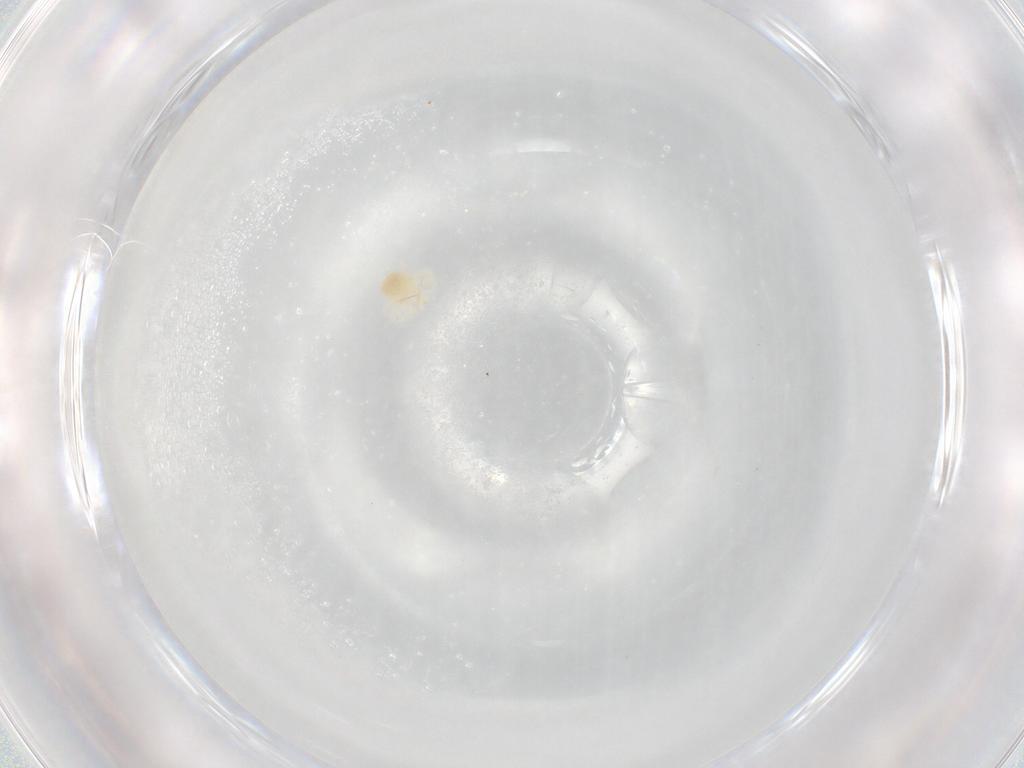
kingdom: Animalia
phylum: Arthropoda
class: Arachnida
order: Trombidiformes
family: Anystidae
